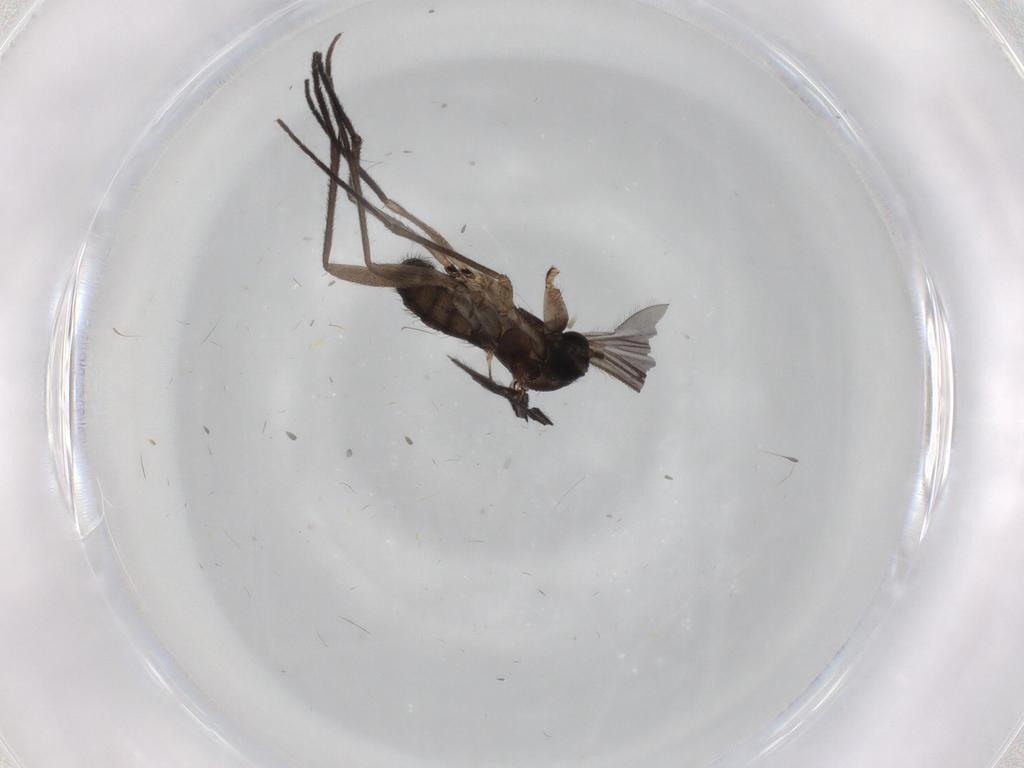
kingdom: Animalia
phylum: Arthropoda
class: Insecta
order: Diptera
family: Sciaridae
